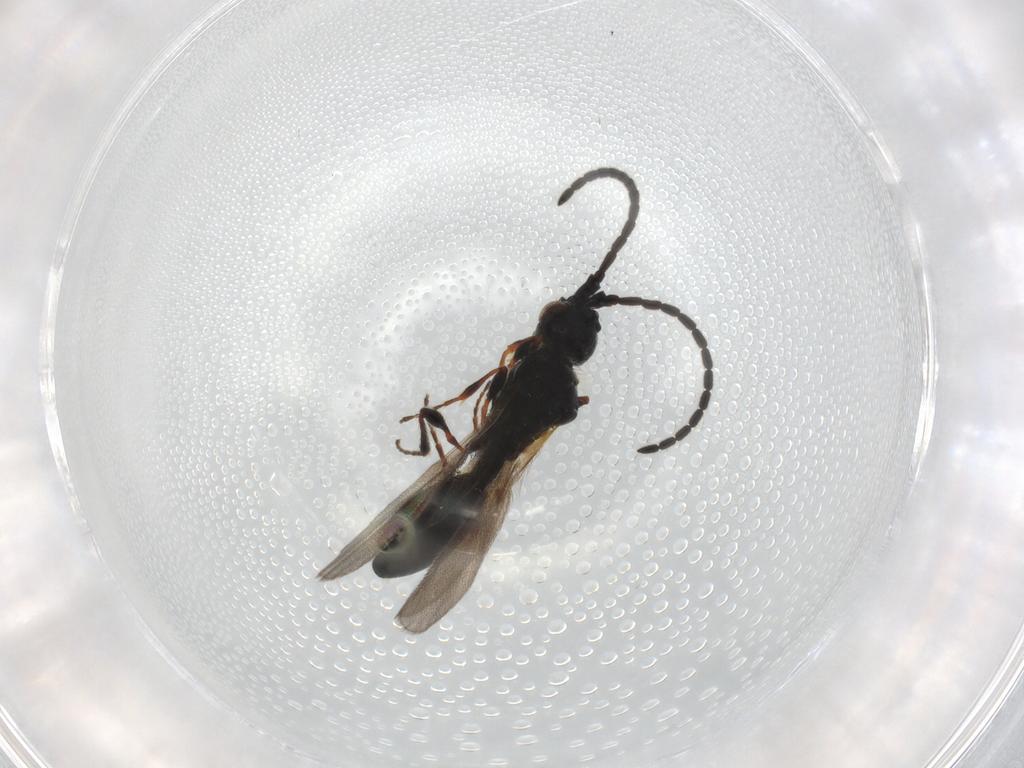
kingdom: Animalia
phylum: Arthropoda
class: Insecta
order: Hymenoptera
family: Diapriidae
